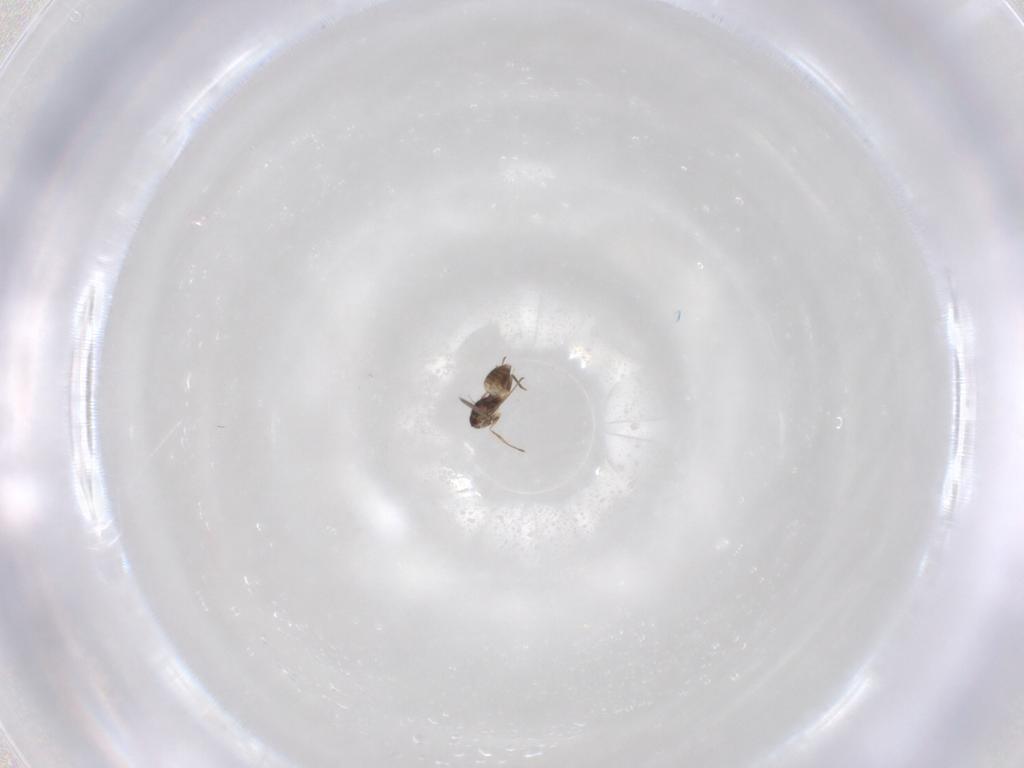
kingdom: Animalia
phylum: Arthropoda
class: Insecta
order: Hymenoptera
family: Mymaridae
